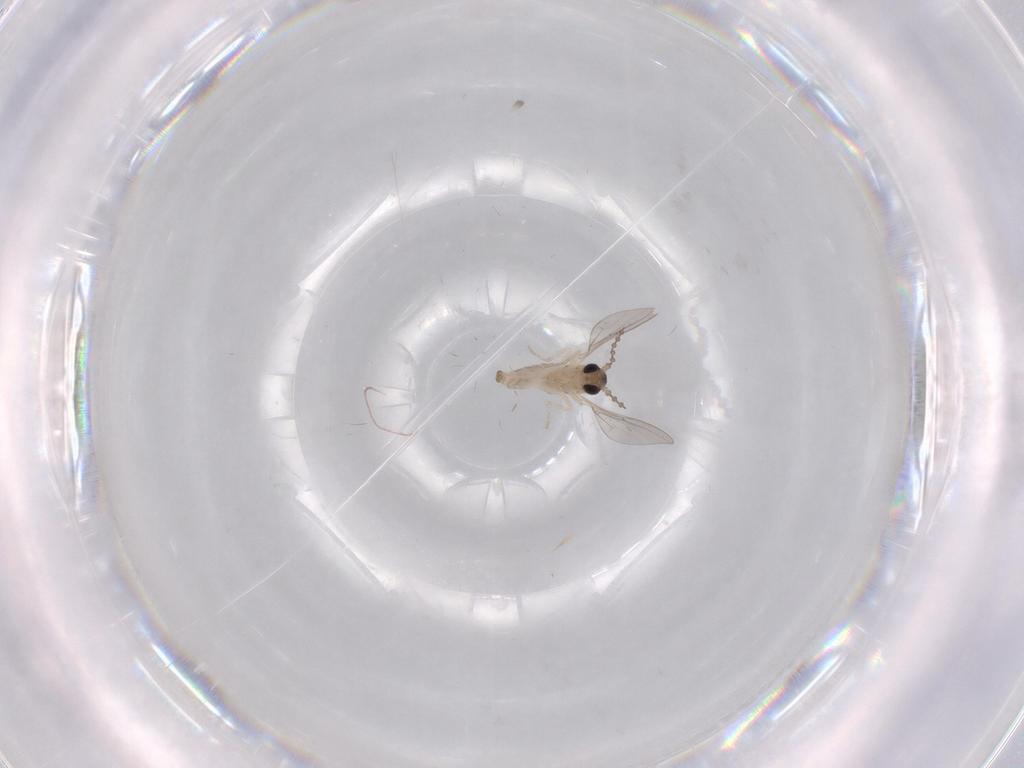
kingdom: Animalia
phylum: Arthropoda
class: Insecta
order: Diptera
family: Cecidomyiidae
